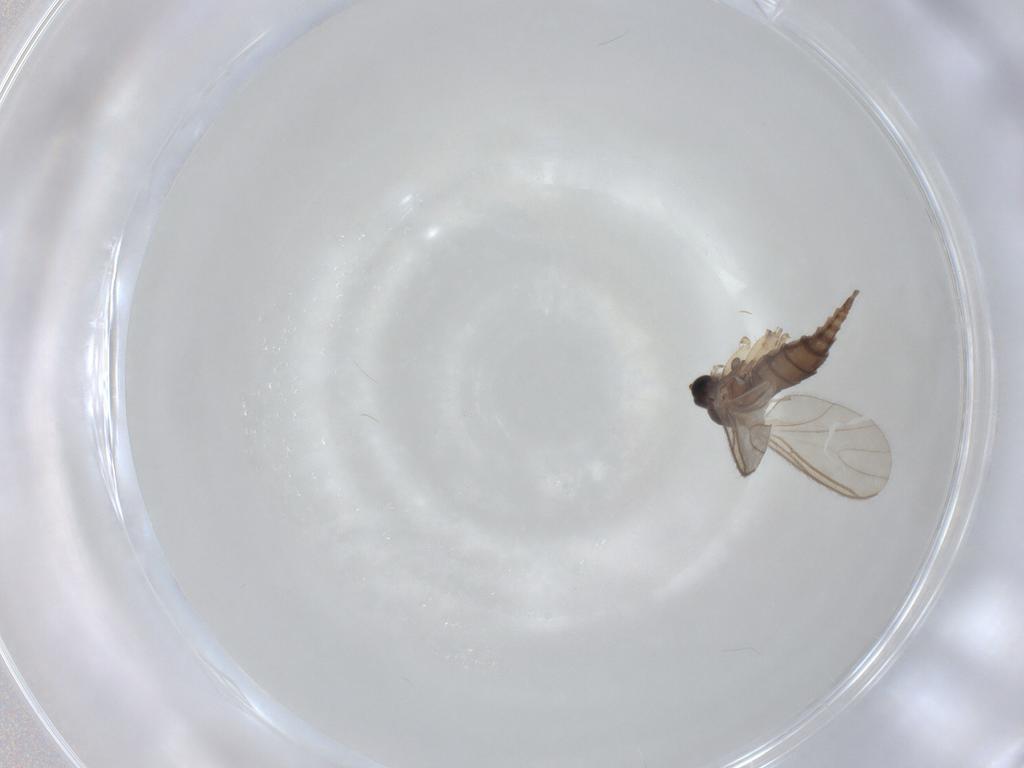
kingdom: Animalia
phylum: Arthropoda
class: Insecta
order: Diptera
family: Sciaridae
